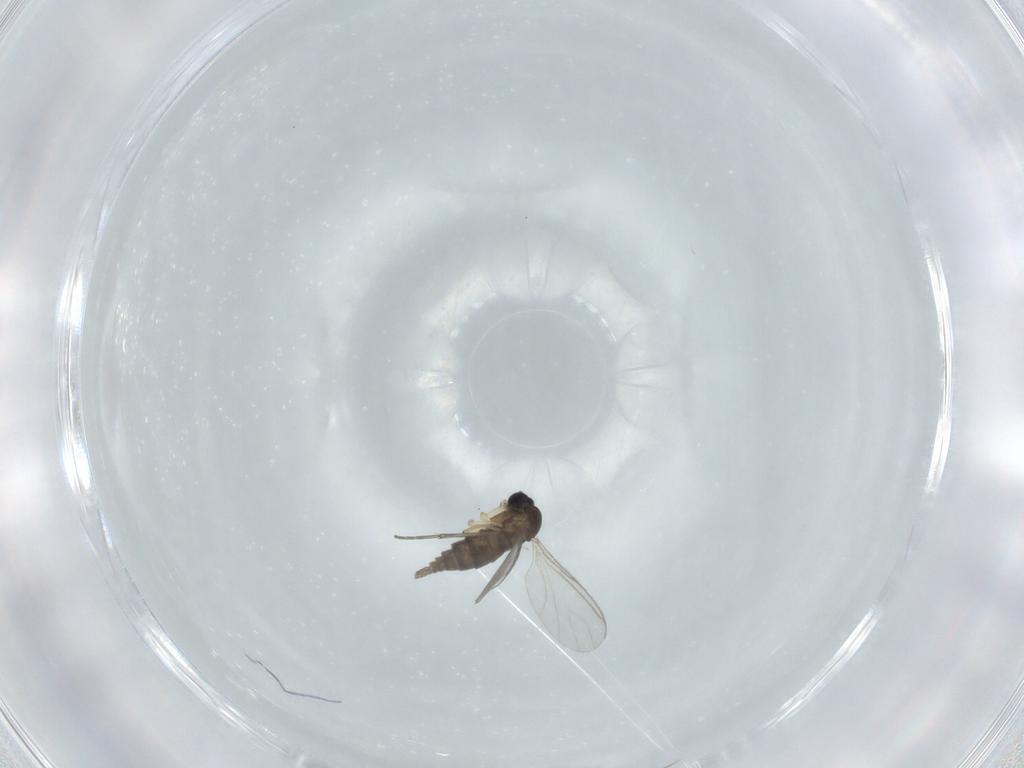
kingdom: Animalia
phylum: Arthropoda
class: Insecta
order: Diptera
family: Sciaridae
